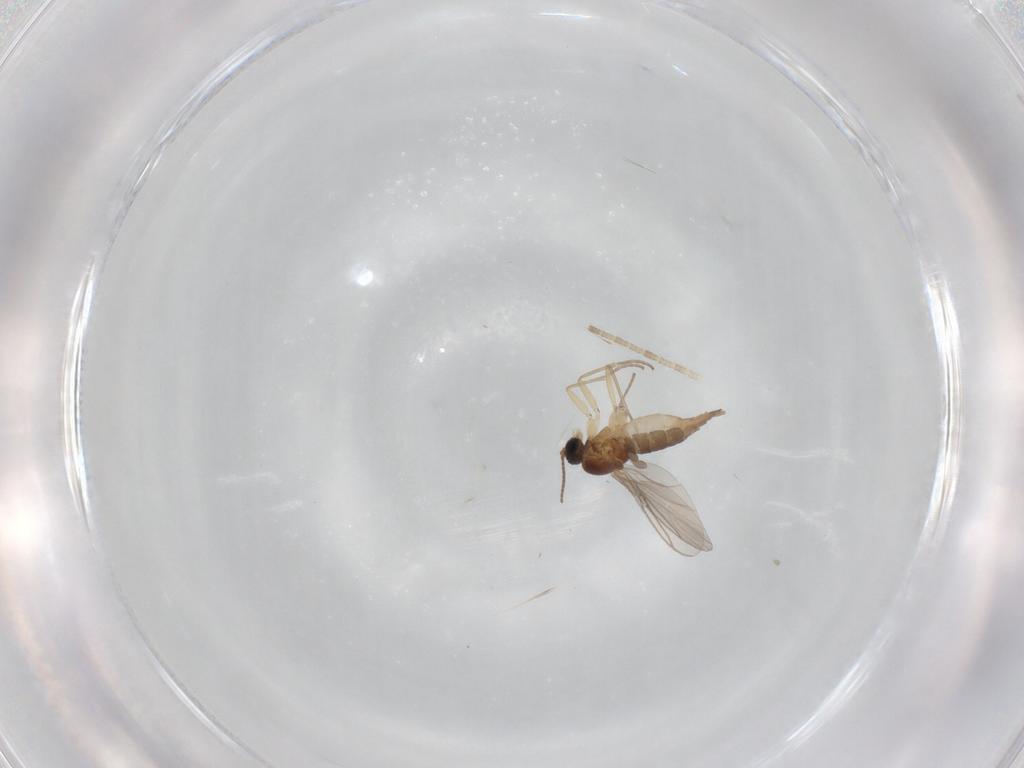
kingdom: Animalia
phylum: Arthropoda
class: Insecta
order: Diptera
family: Sciaridae
